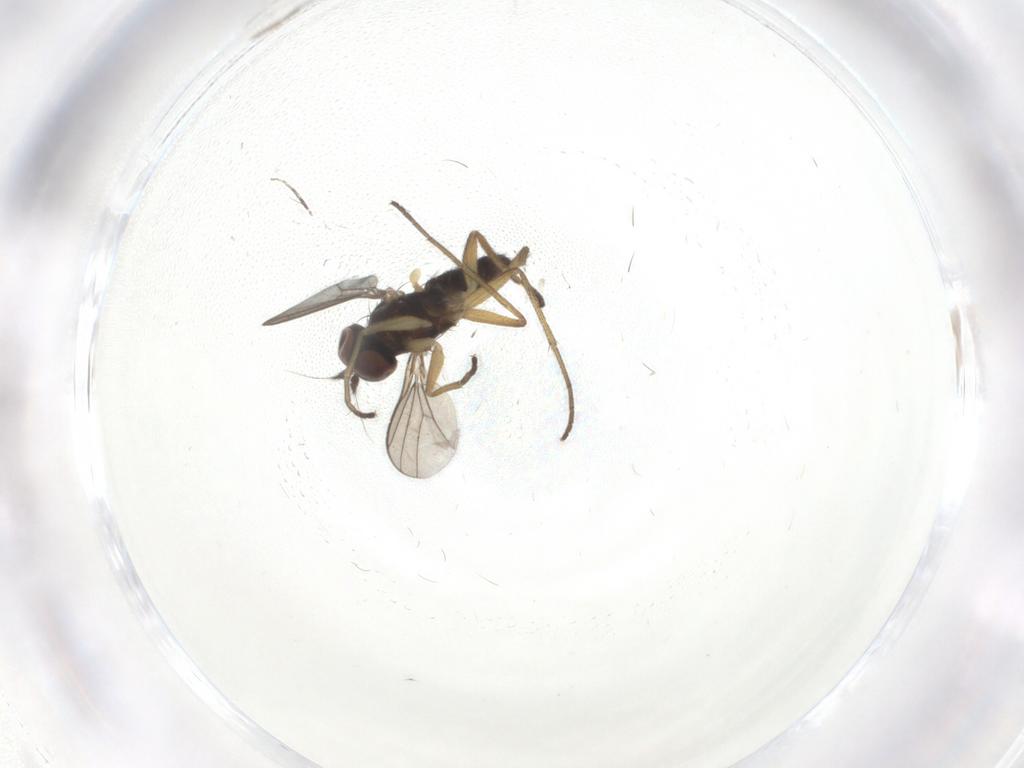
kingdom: Animalia
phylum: Arthropoda
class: Insecta
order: Diptera
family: Dolichopodidae
